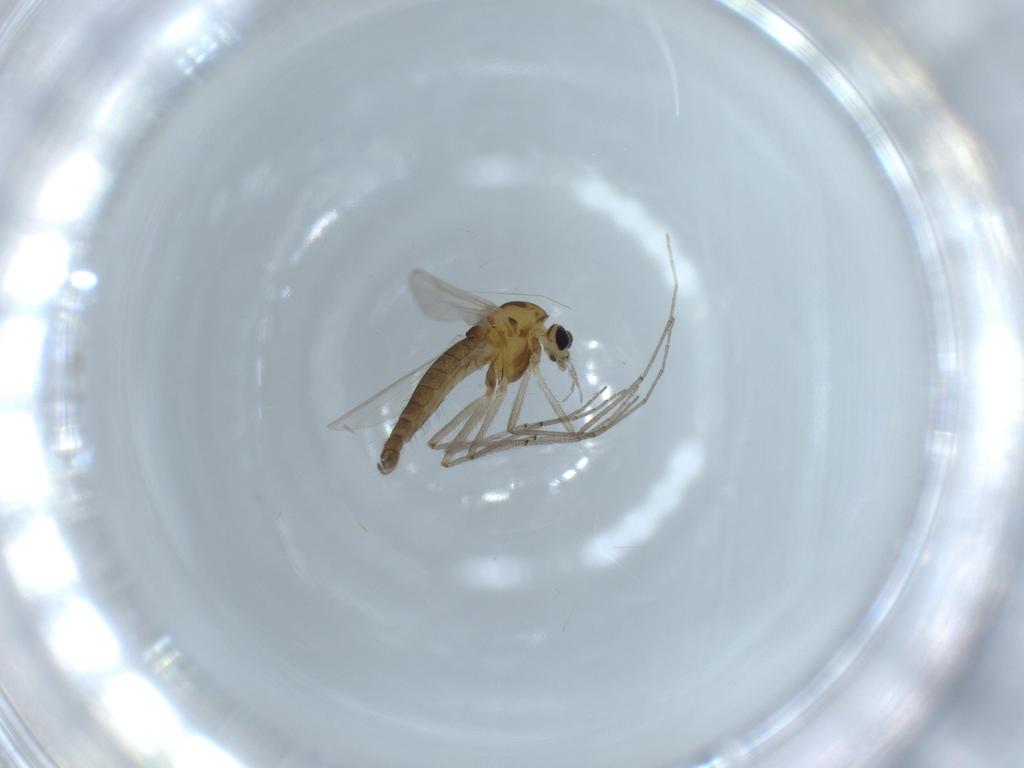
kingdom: Animalia
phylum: Arthropoda
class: Insecta
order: Diptera
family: Chironomidae
